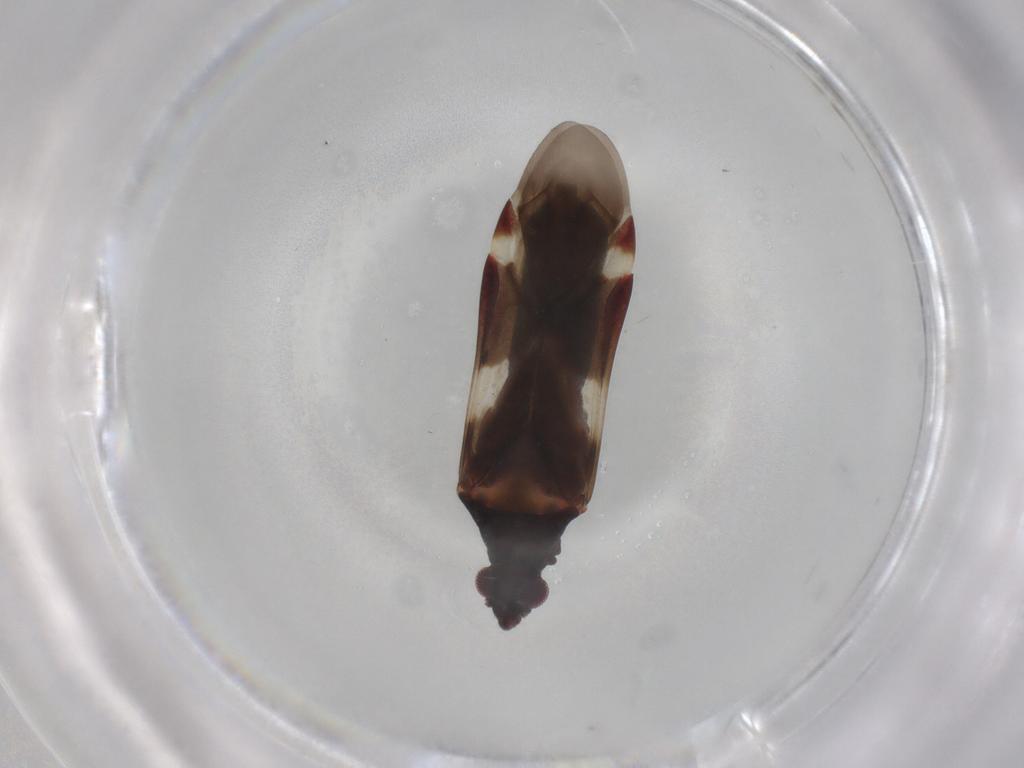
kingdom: Animalia
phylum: Arthropoda
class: Insecta
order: Hemiptera
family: Miridae
